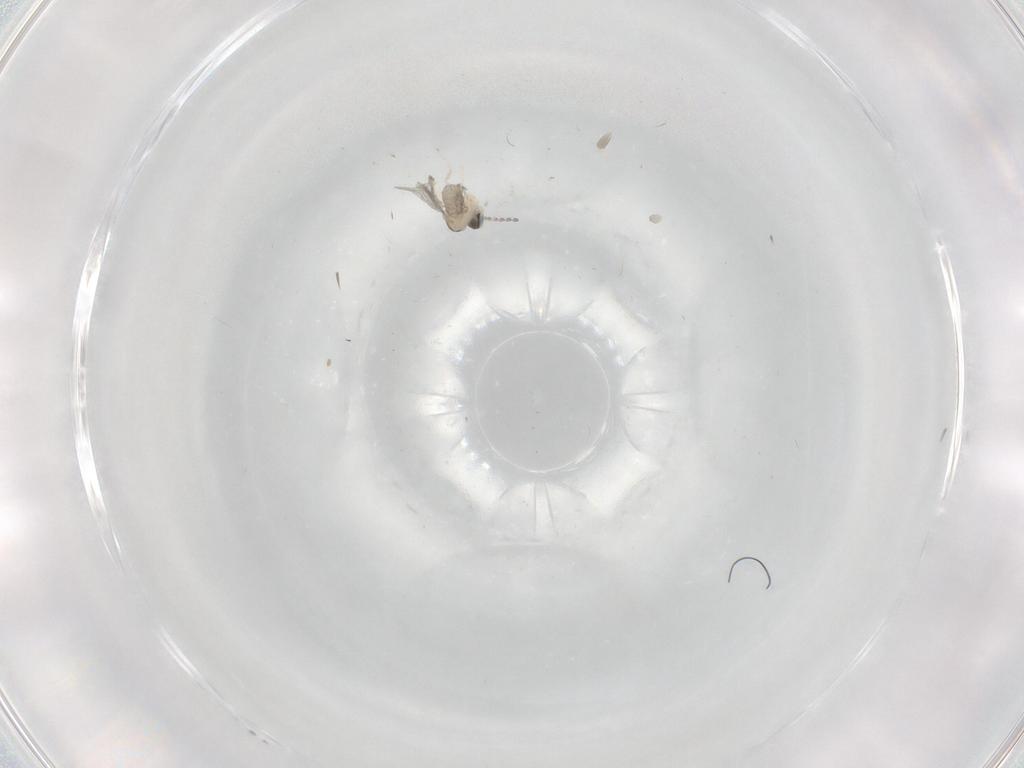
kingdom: Animalia
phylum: Arthropoda
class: Insecta
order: Diptera
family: Cecidomyiidae
